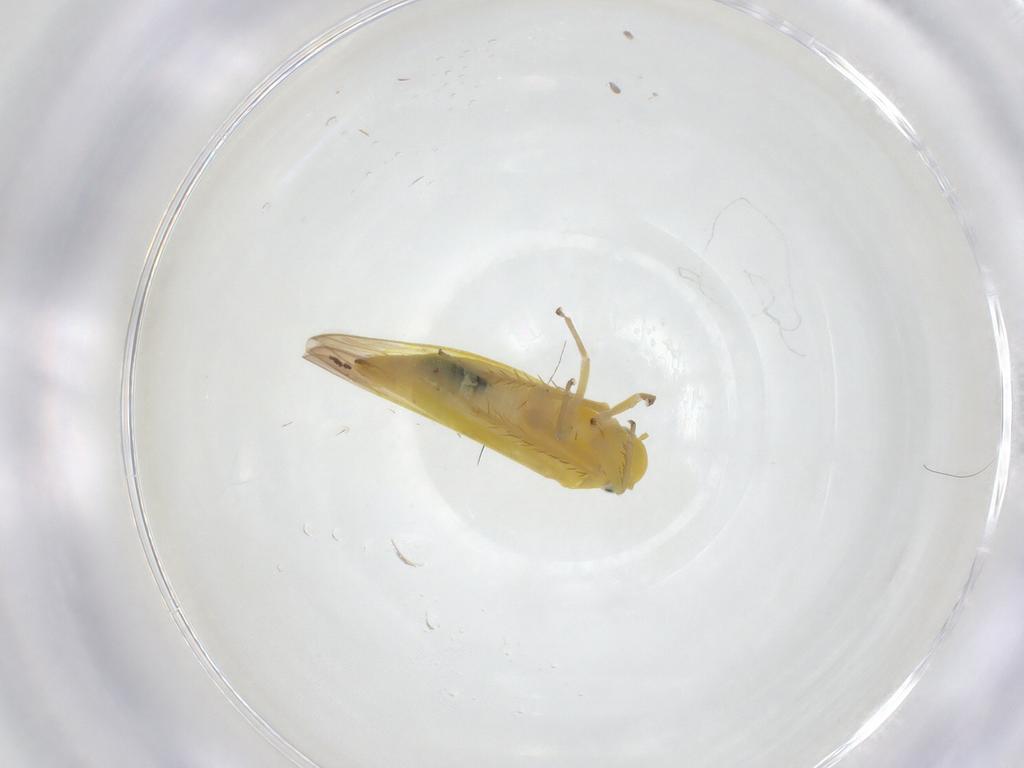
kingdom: Animalia
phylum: Arthropoda
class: Insecta
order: Hemiptera
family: Cicadellidae
